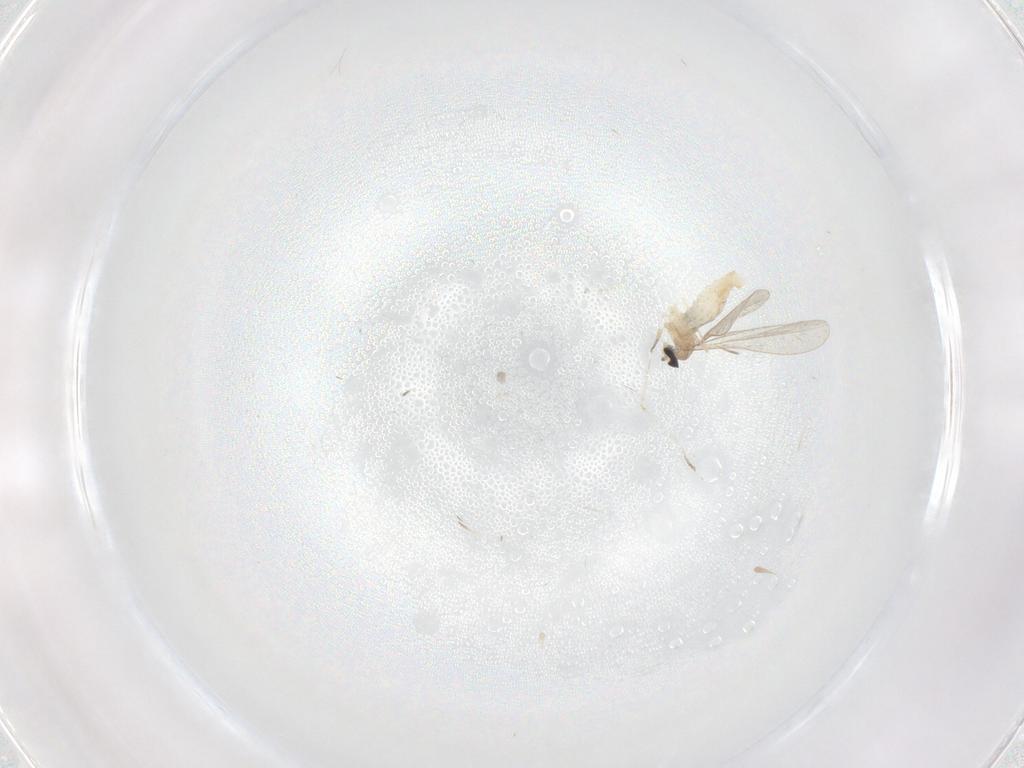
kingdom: Animalia
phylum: Arthropoda
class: Insecta
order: Diptera
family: Cecidomyiidae
